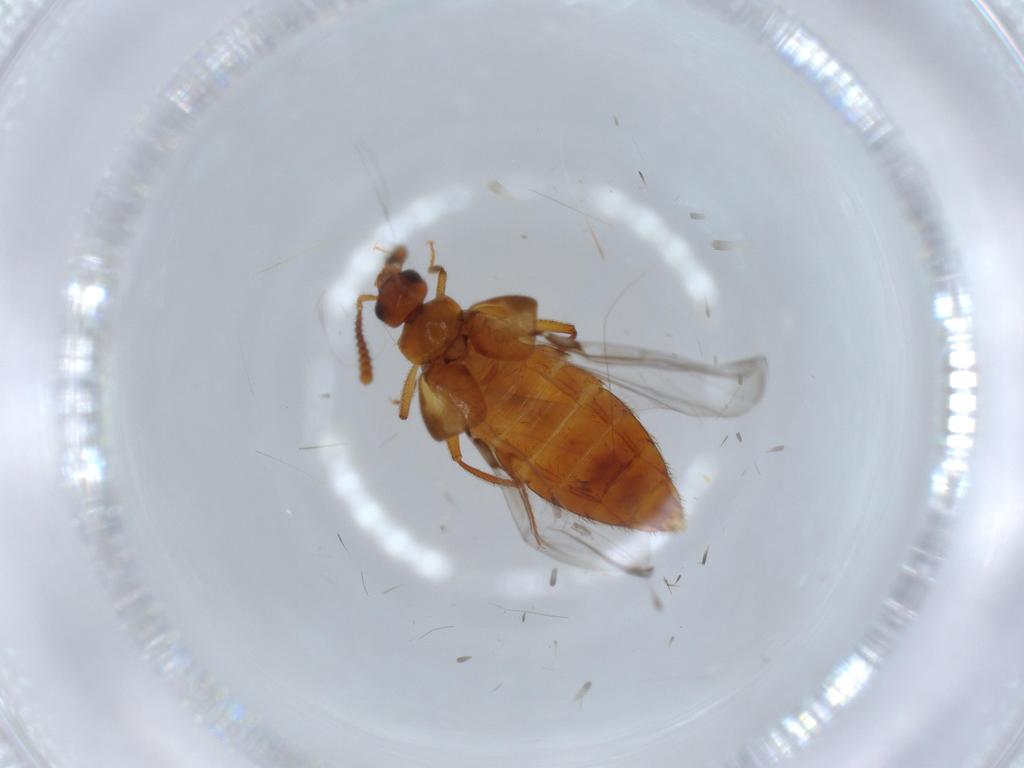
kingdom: Animalia
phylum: Arthropoda
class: Insecta
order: Coleoptera
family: Staphylinidae
